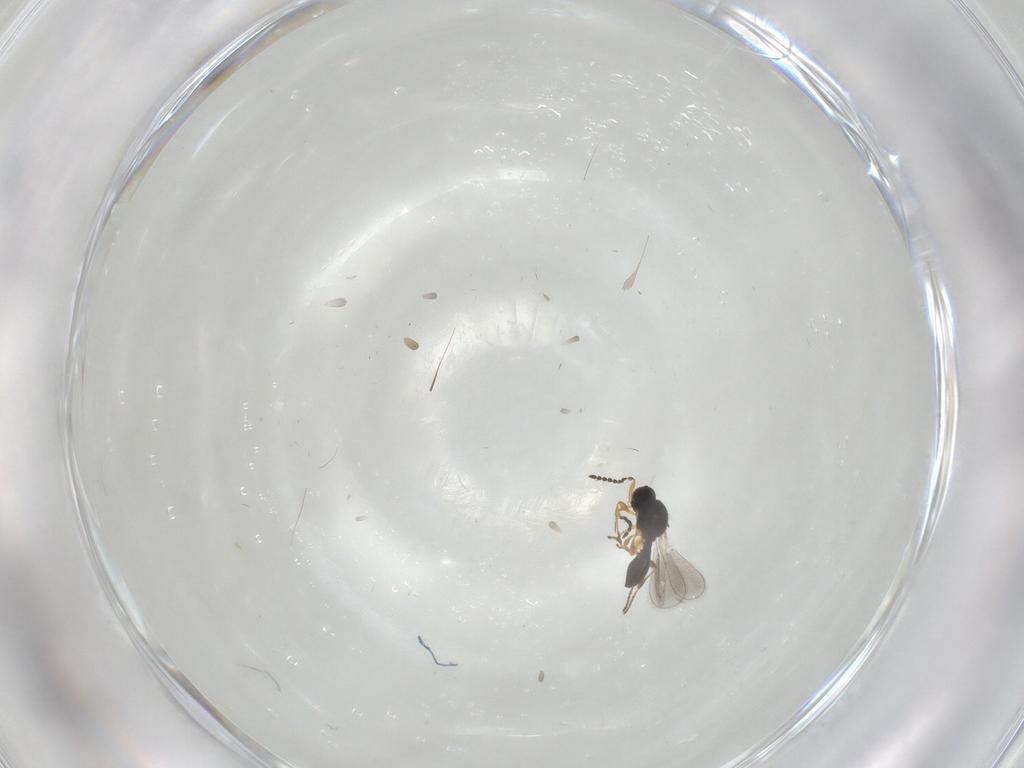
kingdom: Animalia
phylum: Arthropoda
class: Insecta
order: Hymenoptera
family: Platygastridae
